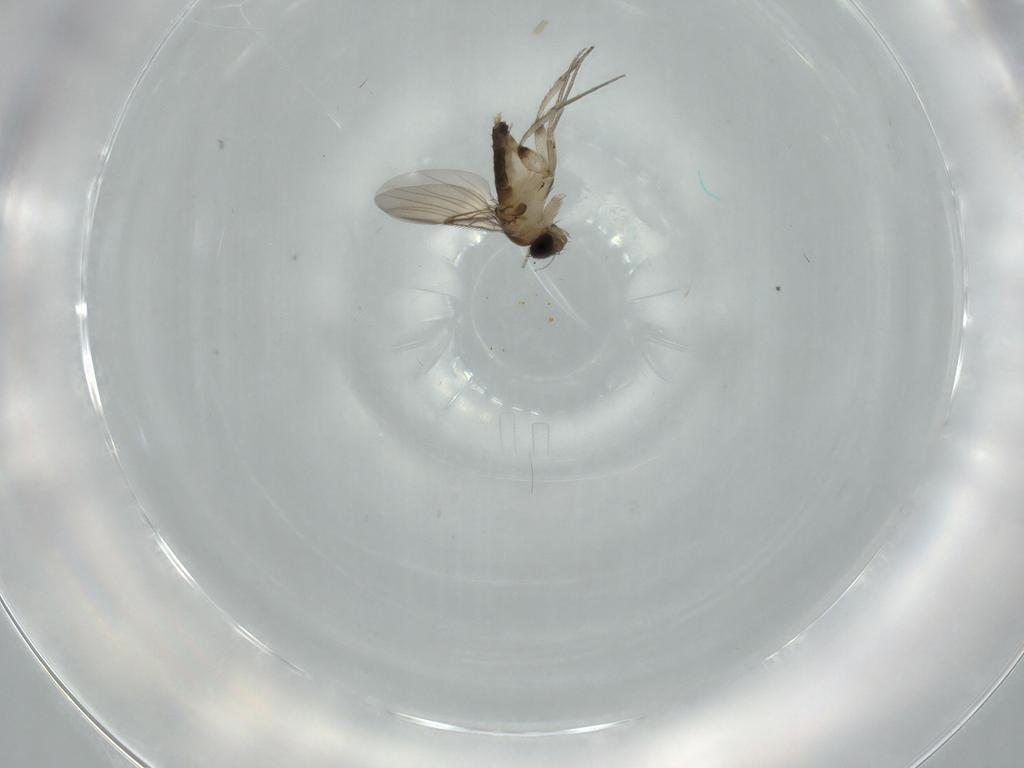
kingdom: Animalia
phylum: Arthropoda
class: Insecta
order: Diptera
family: Phoridae
